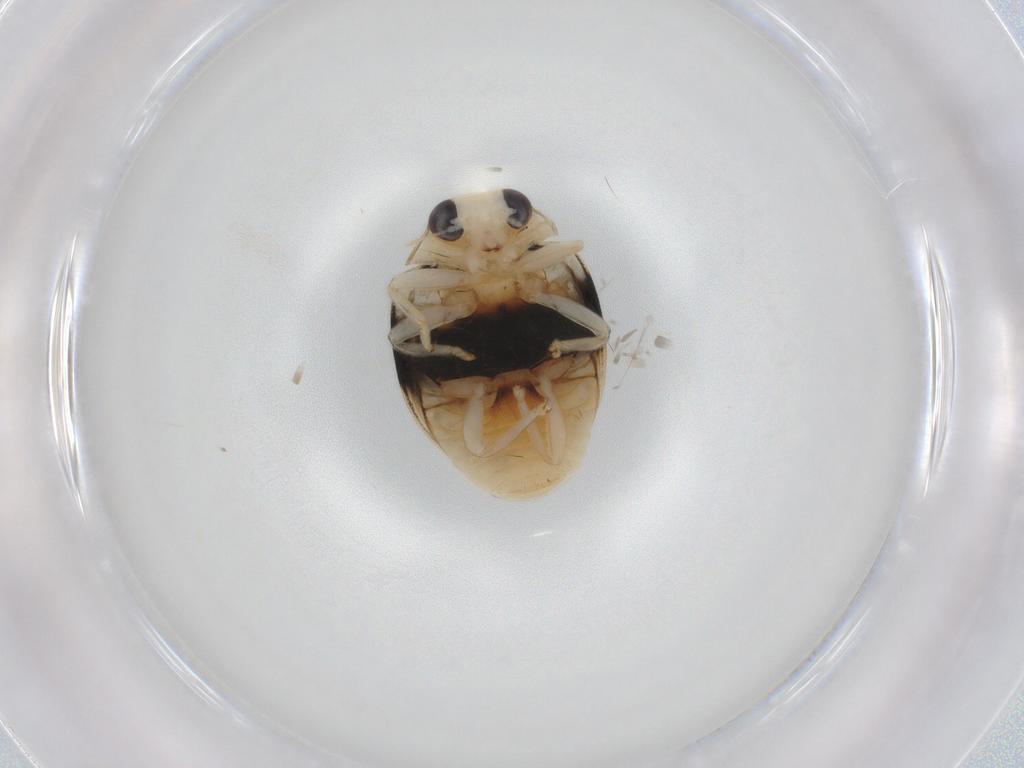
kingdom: Animalia
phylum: Arthropoda
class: Insecta
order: Coleoptera
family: Coccinellidae
